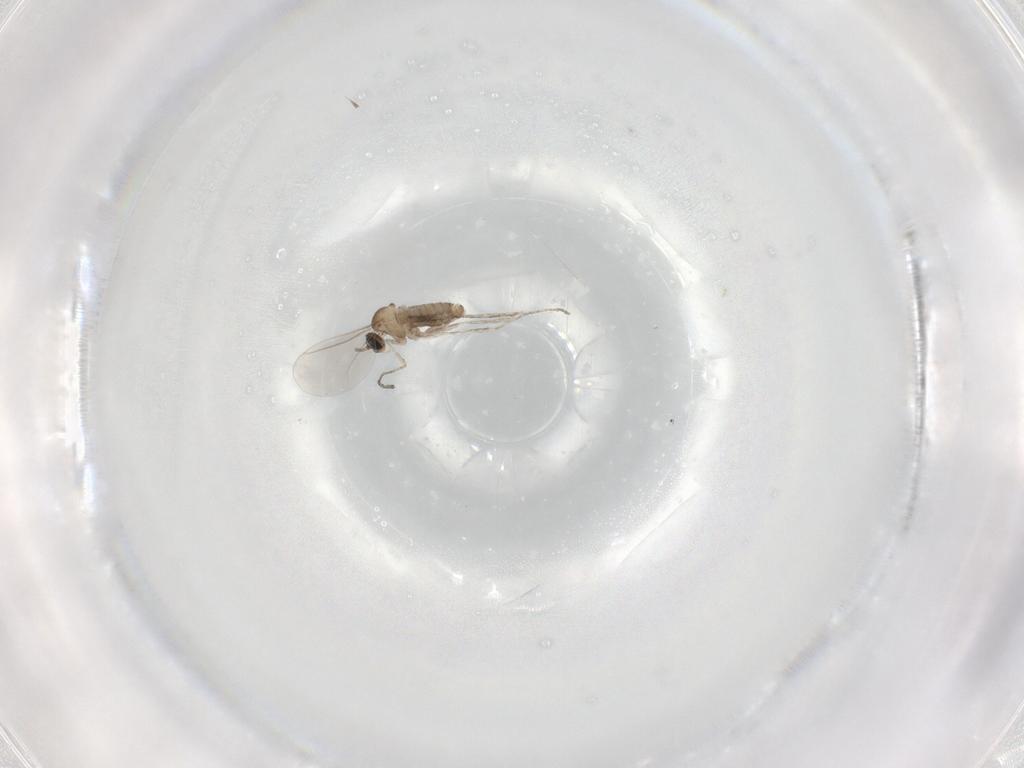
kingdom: Animalia
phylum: Arthropoda
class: Insecta
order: Diptera
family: Cecidomyiidae
